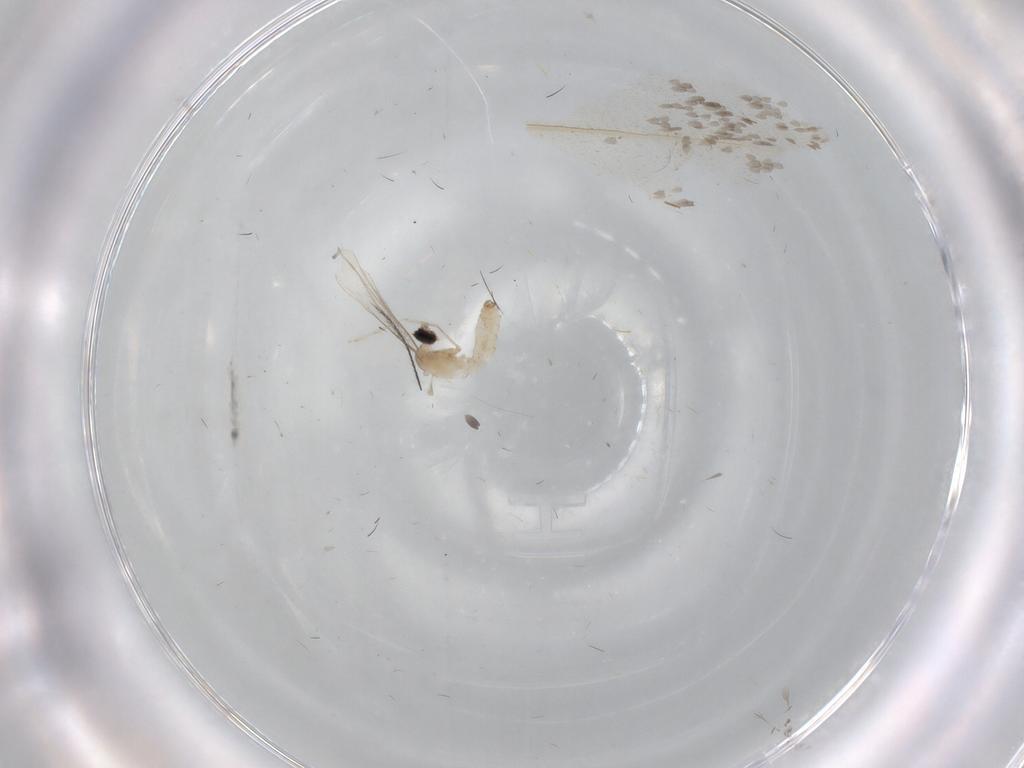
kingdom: Animalia
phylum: Arthropoda
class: Insecta
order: Diptera
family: Cecidomyiidae
